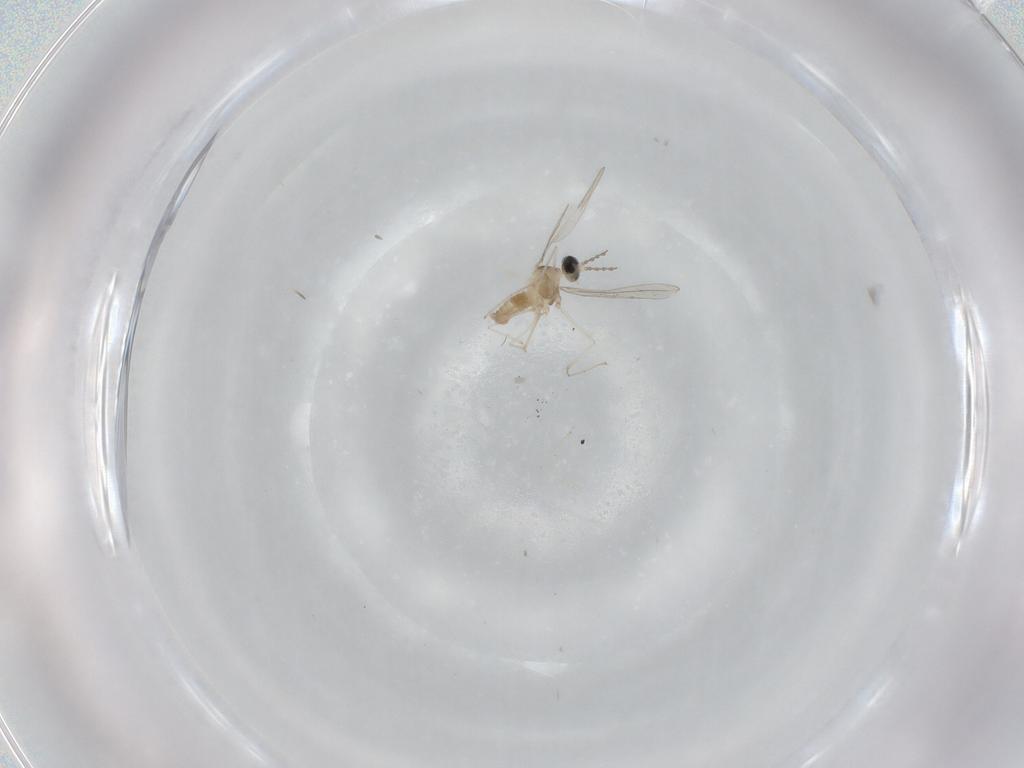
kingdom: Animalia
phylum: Arthropoda
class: Insecta
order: Diptera
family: Cecidomyiidae
